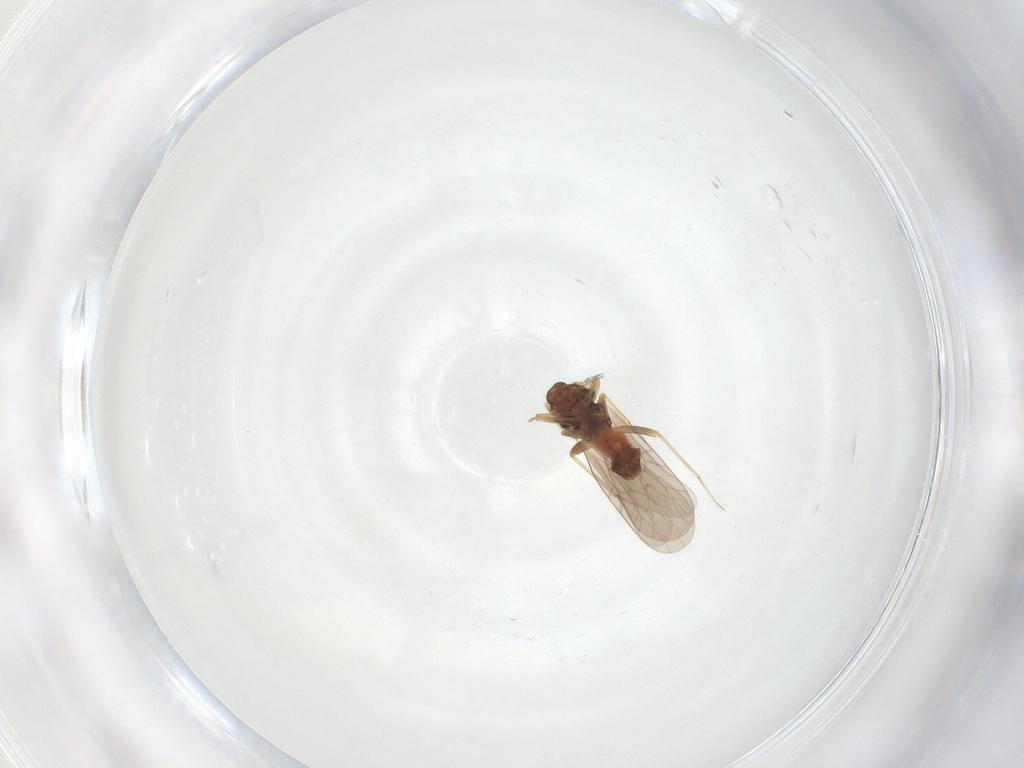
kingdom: Animalia
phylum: Arthropoda
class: Insecta
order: Psocodea
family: Lepidopsocidae
